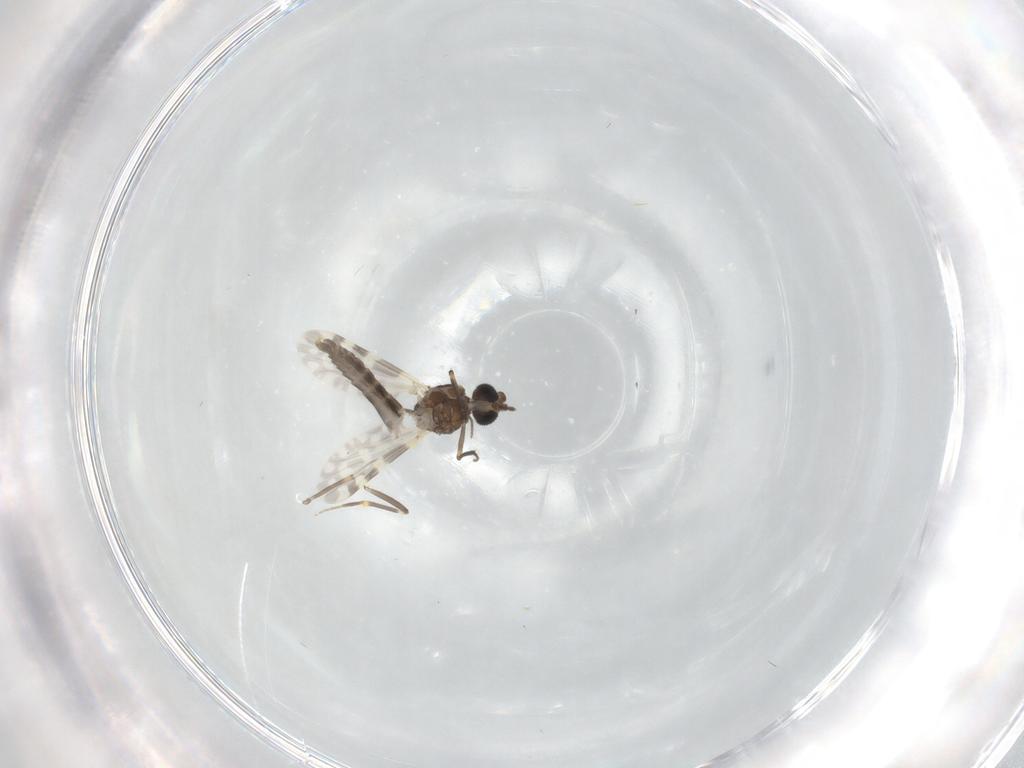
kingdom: Animalia
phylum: Arthropoda
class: Insecta
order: Diptera
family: Ceratopogonidae
